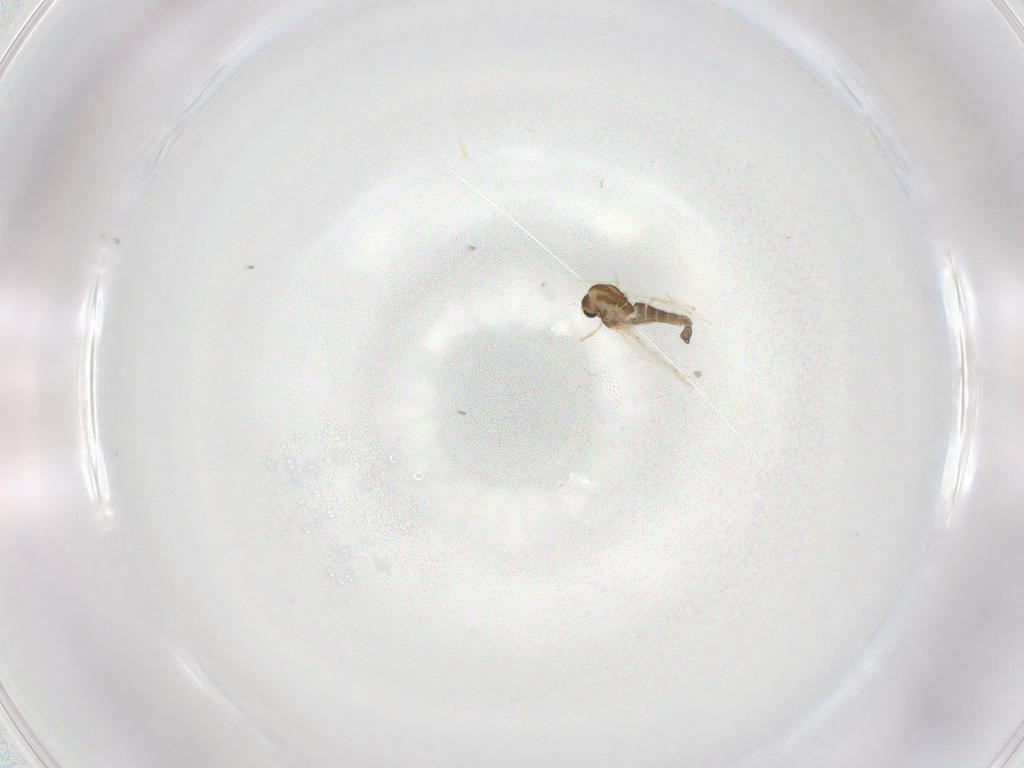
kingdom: Animalia
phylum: Arthropoda
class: Insecta
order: Diptera
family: Chironomidae
